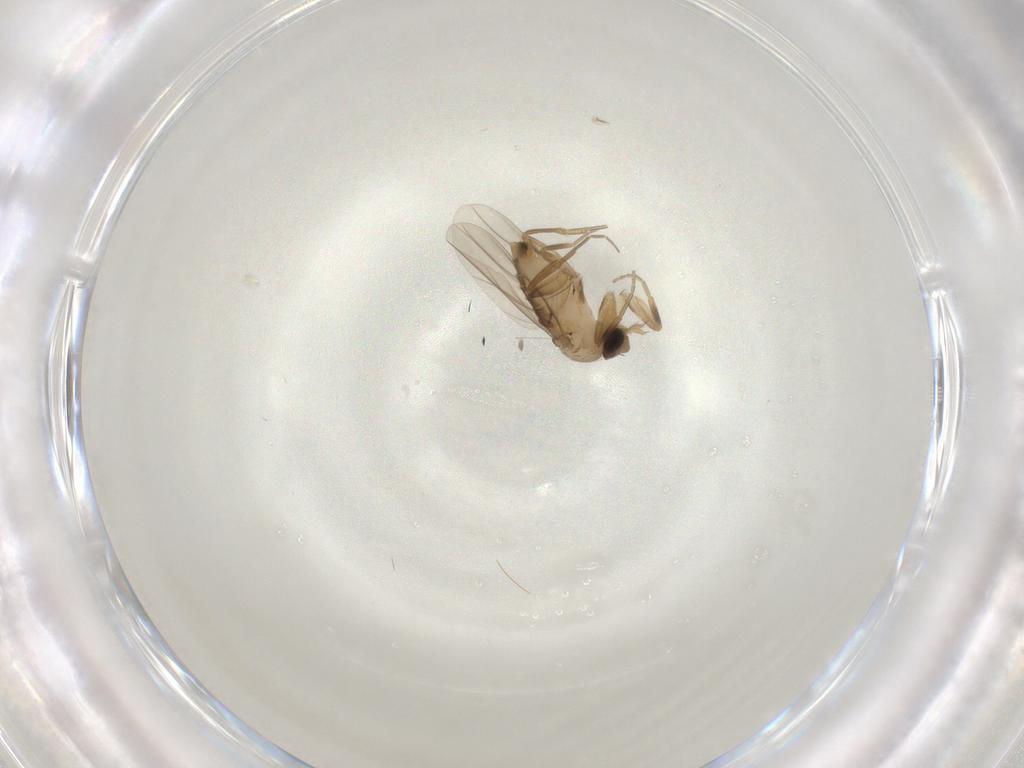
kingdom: Animalia
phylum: Arthropoda
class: Insecta
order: Diptera
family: Phoridae
